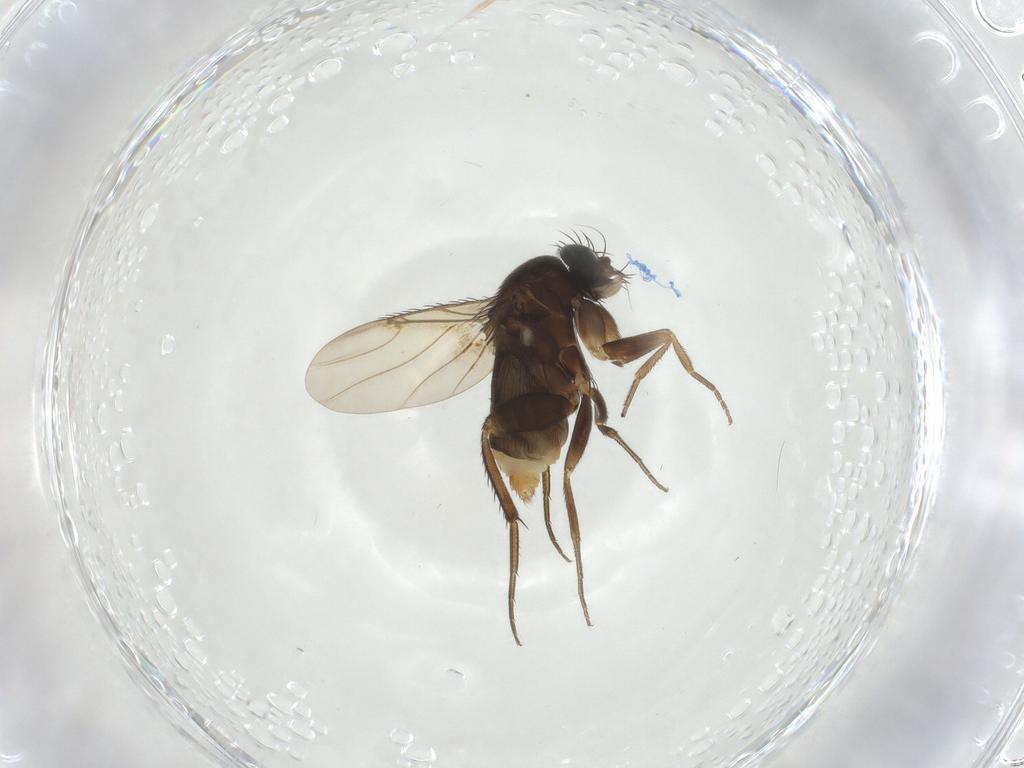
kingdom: Animalia
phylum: Arthropoda
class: Insecta
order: Diptera
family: Phoridae
